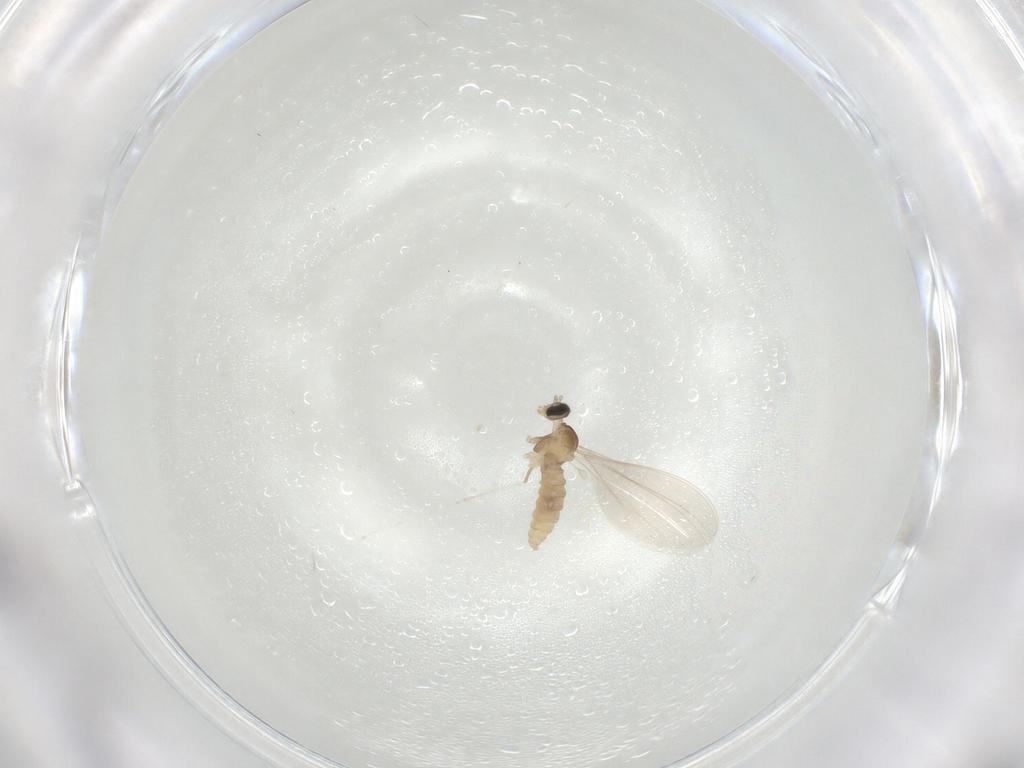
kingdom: Animalia
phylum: Arthropoda
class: Insecta
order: Diptera
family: Cecidomyiidae
